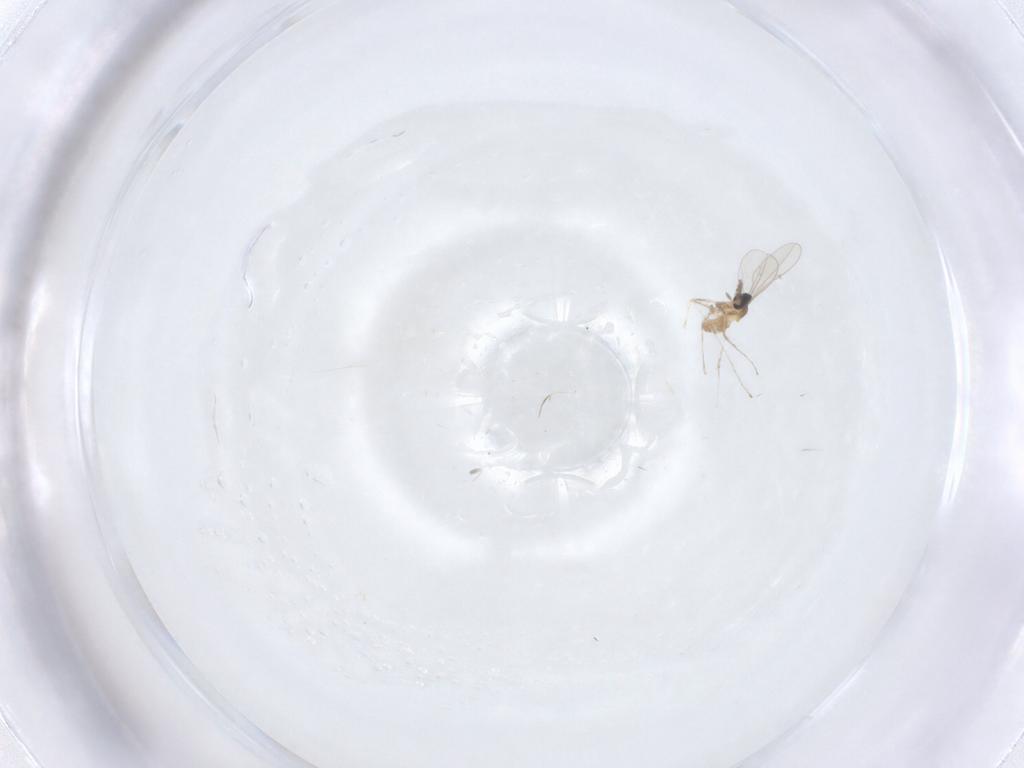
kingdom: Animalia
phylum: Arthropoda
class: Insecta
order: Diptera
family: Cecidomyiidae
